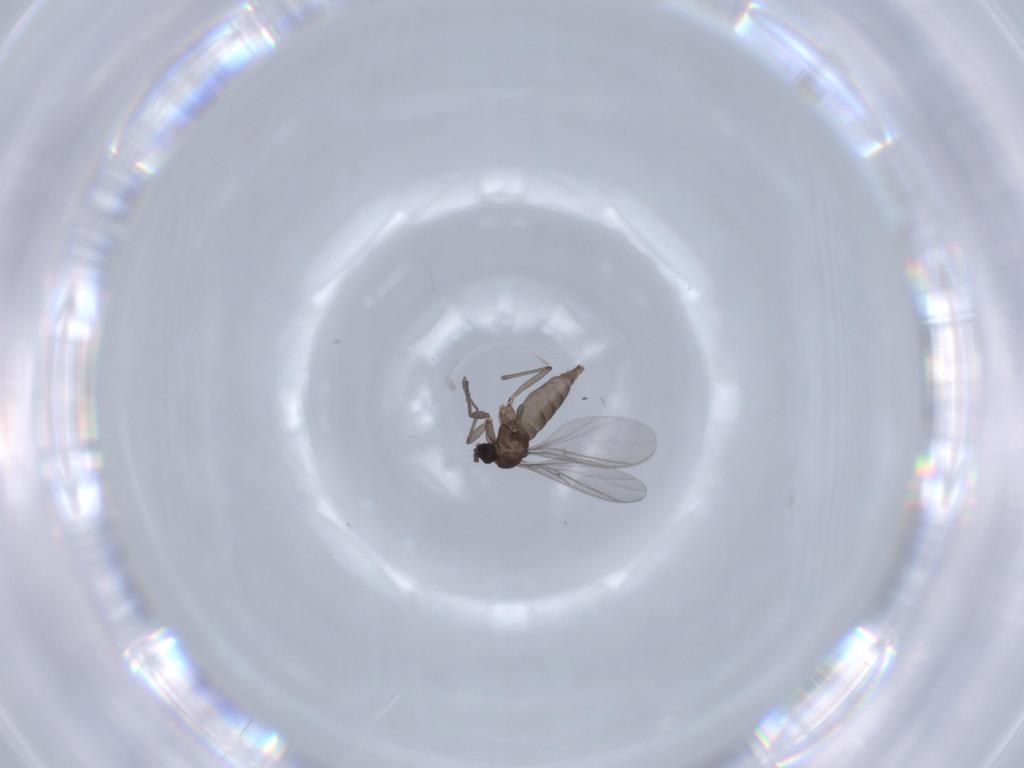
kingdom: Animalia
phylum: Arthropoda
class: Insecta
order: Diptera
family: Sciaridae
